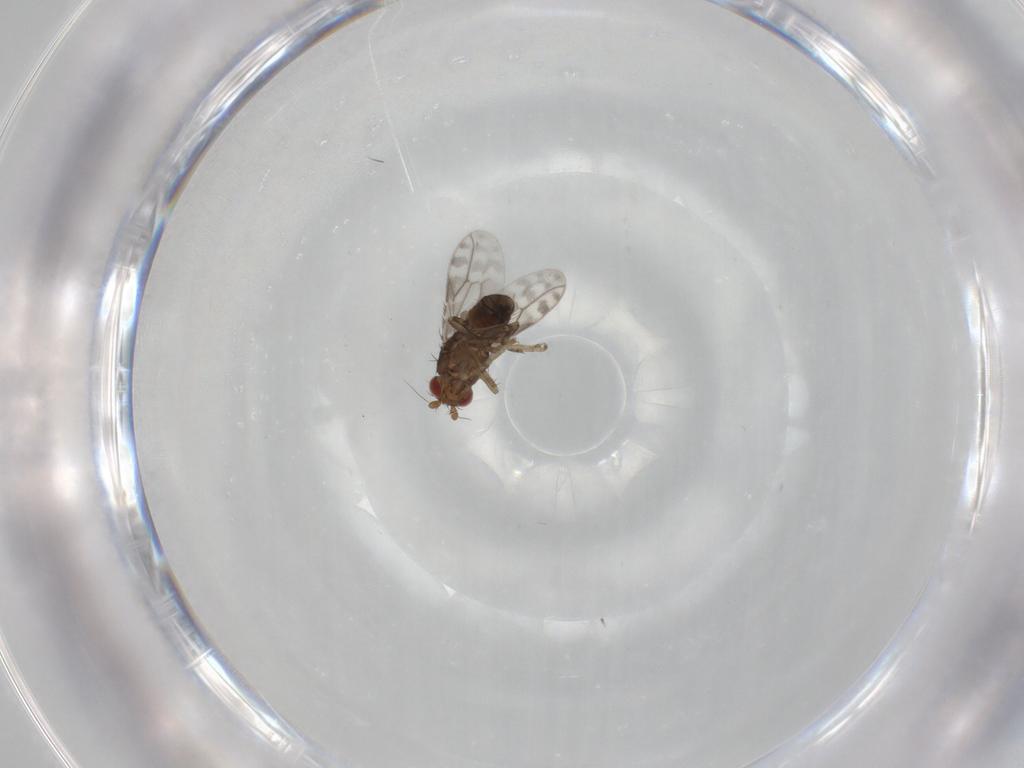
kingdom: Animalia
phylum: Arthropoda
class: Insecta
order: Diptera
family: Sphaeroceridae
